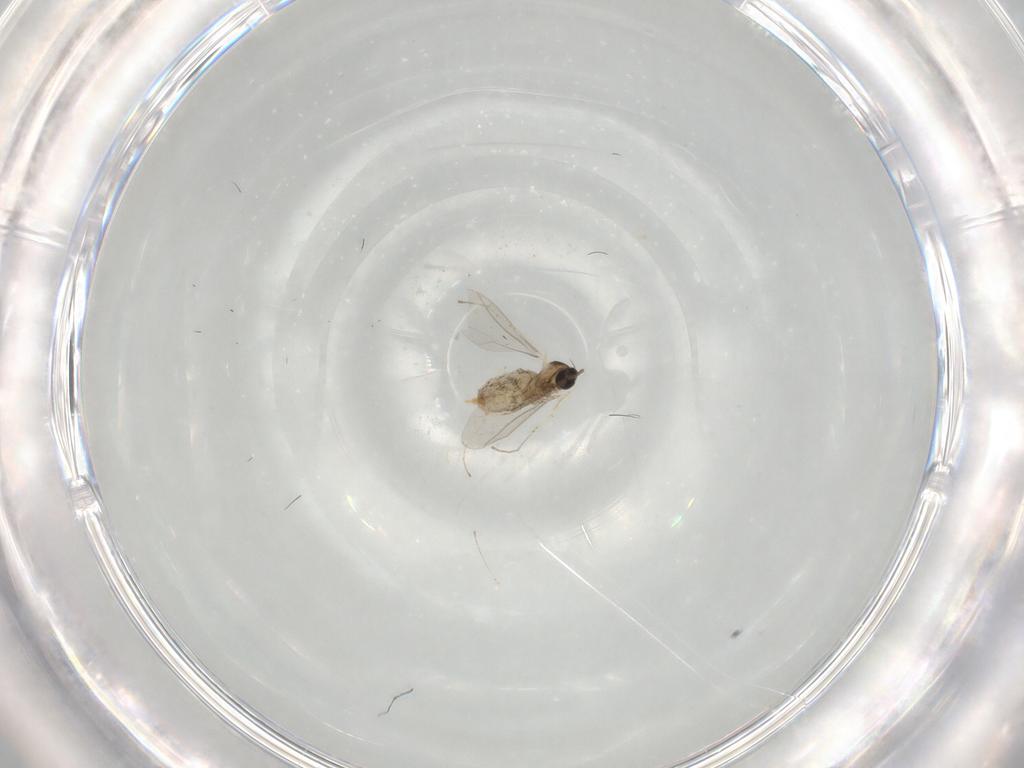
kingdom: Animalia
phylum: Arthropoda
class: Insecta
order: Diptera
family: Cecidomyiidae
